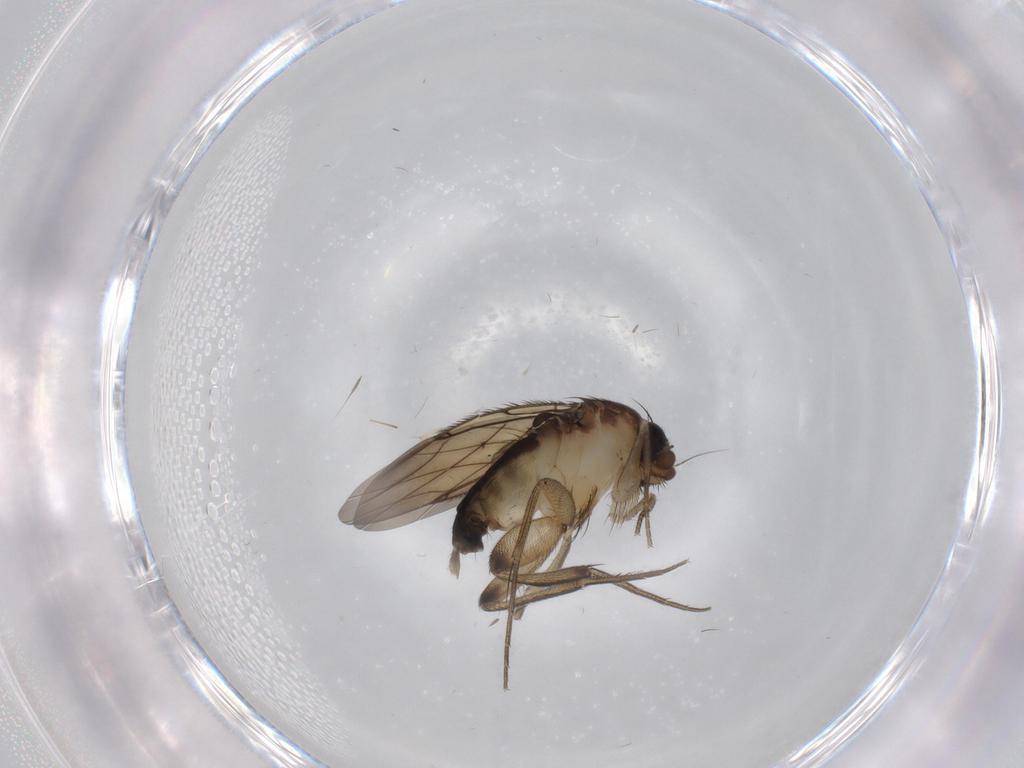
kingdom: Animalia
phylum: Arthropoda
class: Insecta
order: Diptera
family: Phoridae
